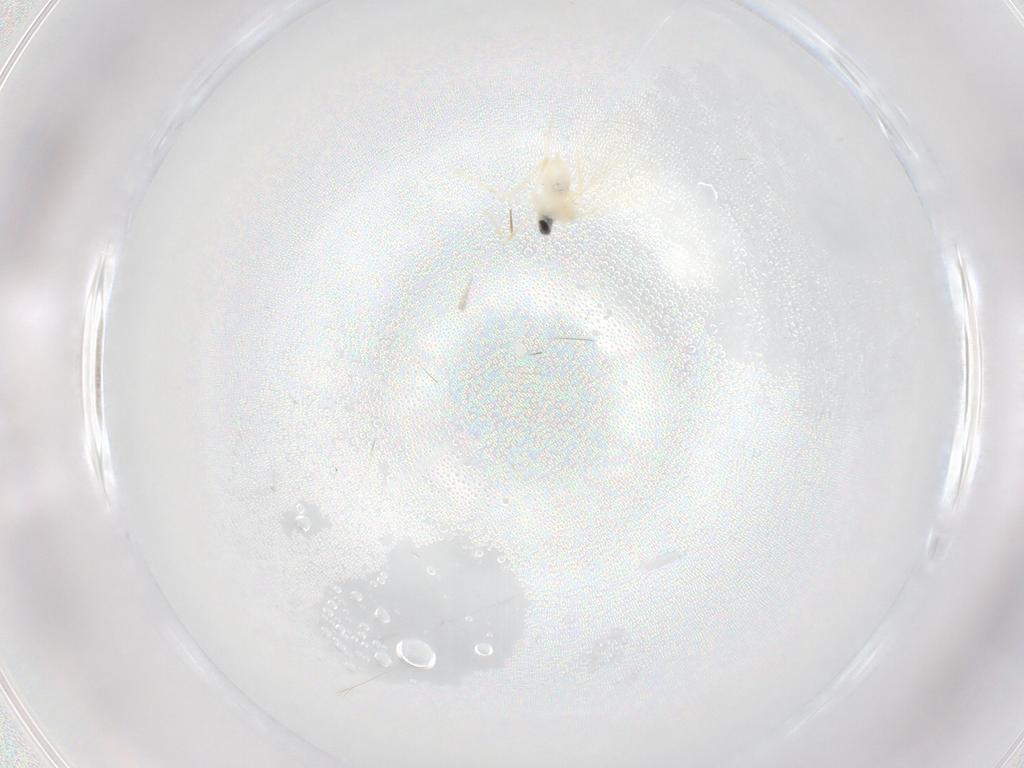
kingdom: Animalia
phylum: Arthropoda
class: Insecta
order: Diptera
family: Cecidomyiidae
